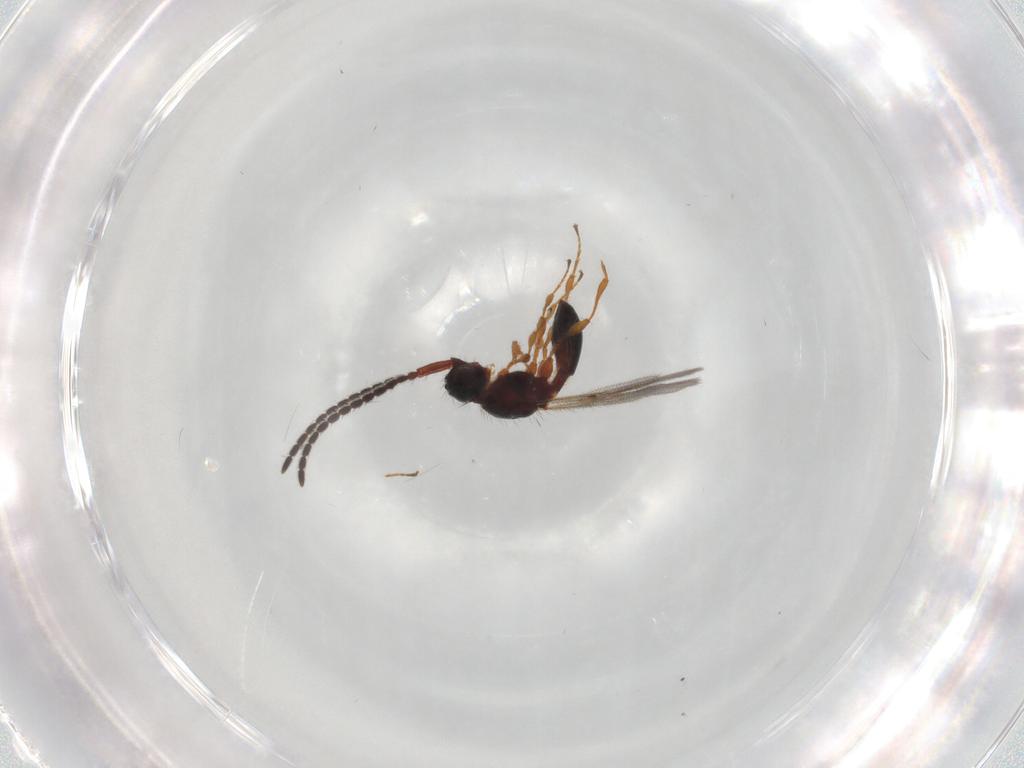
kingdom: Animalia
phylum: Arthropoda
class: Insecta
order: Hymenoptera
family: Diapriidae
